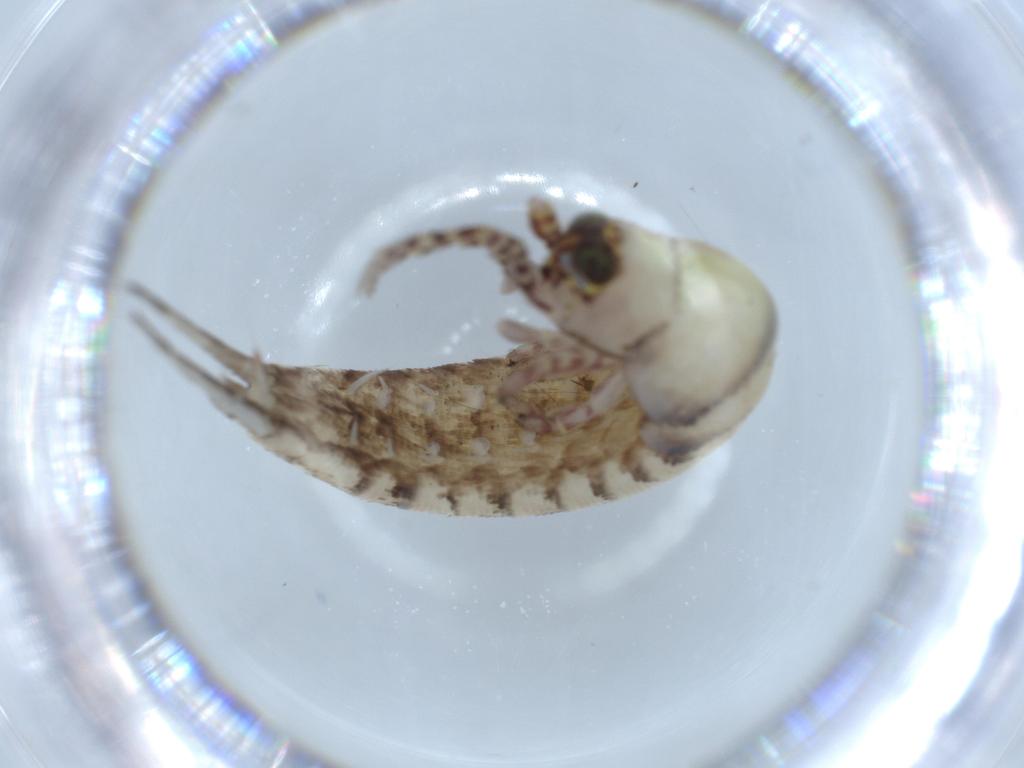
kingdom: Animalia
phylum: Arthropoda
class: Insecta
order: Archaeognatha
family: Machilidae
